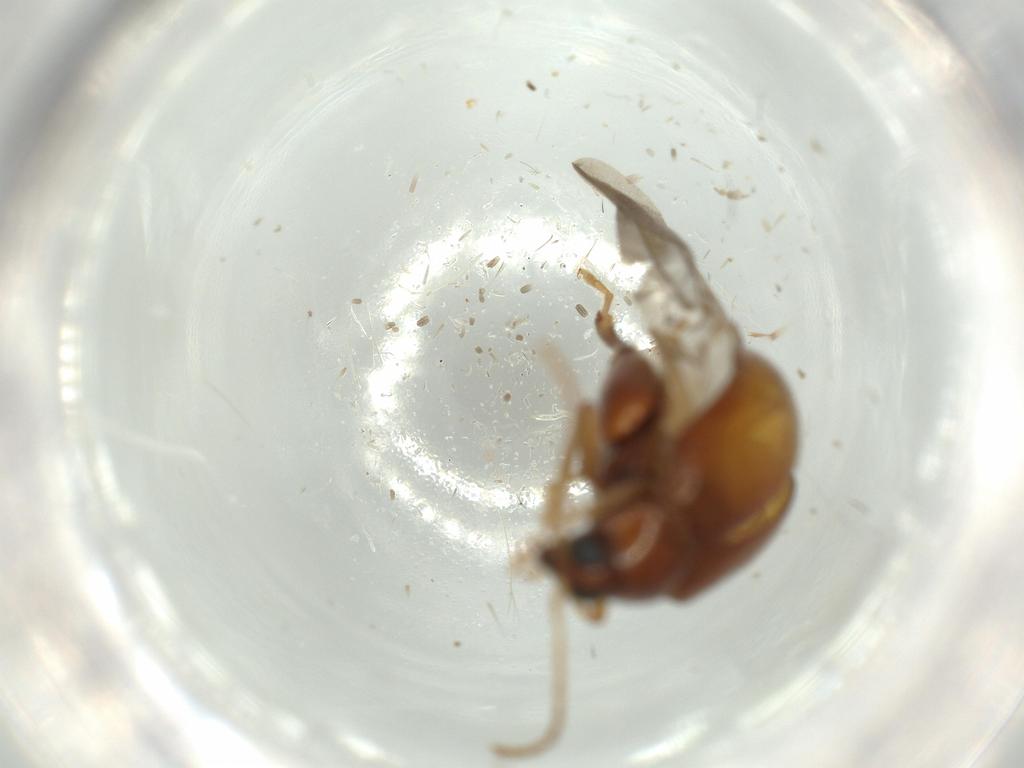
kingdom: Animalia
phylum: Arthropoda
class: Insecta
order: Coleoptera
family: Chrysomelidae
